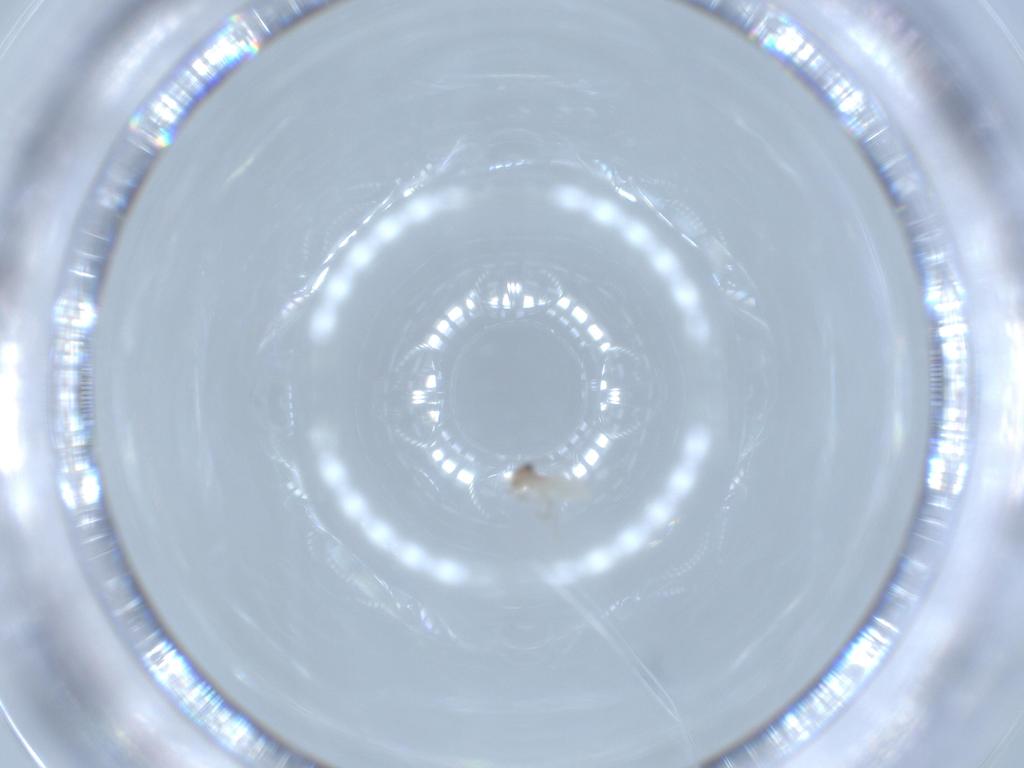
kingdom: Animalia
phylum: Arthropoda
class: Insecta
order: Psocodea
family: Lepidopsocidae
